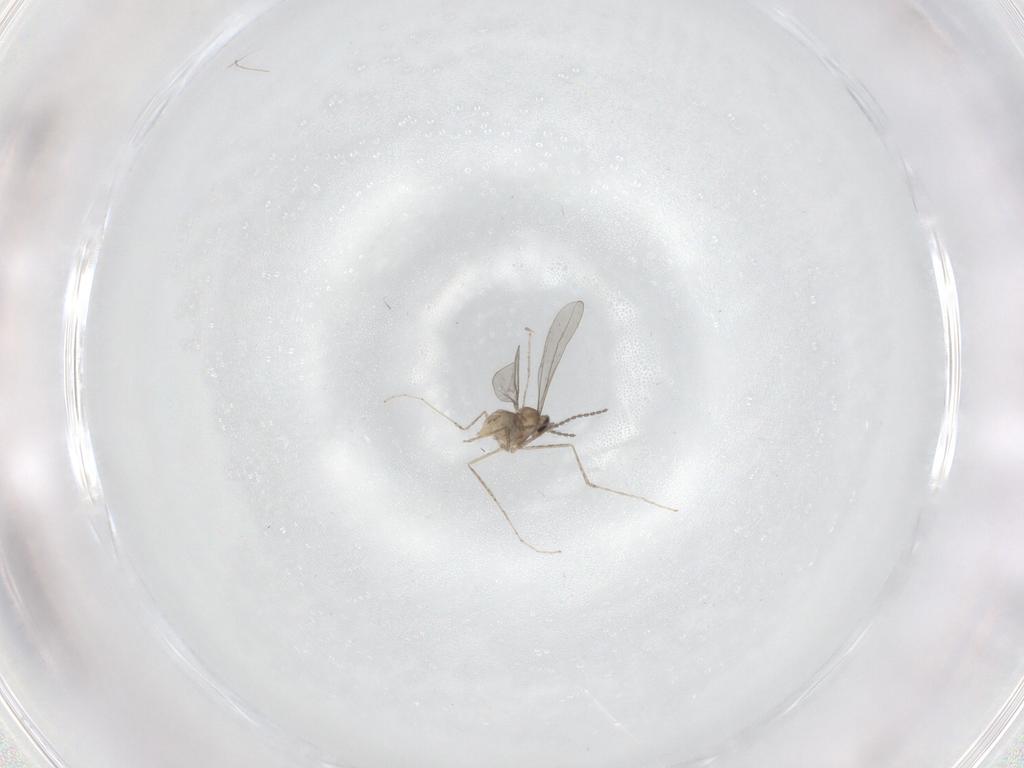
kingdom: Animalia
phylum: Arthropoda
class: Insecta
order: Diptera
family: Cecidomyiidae
